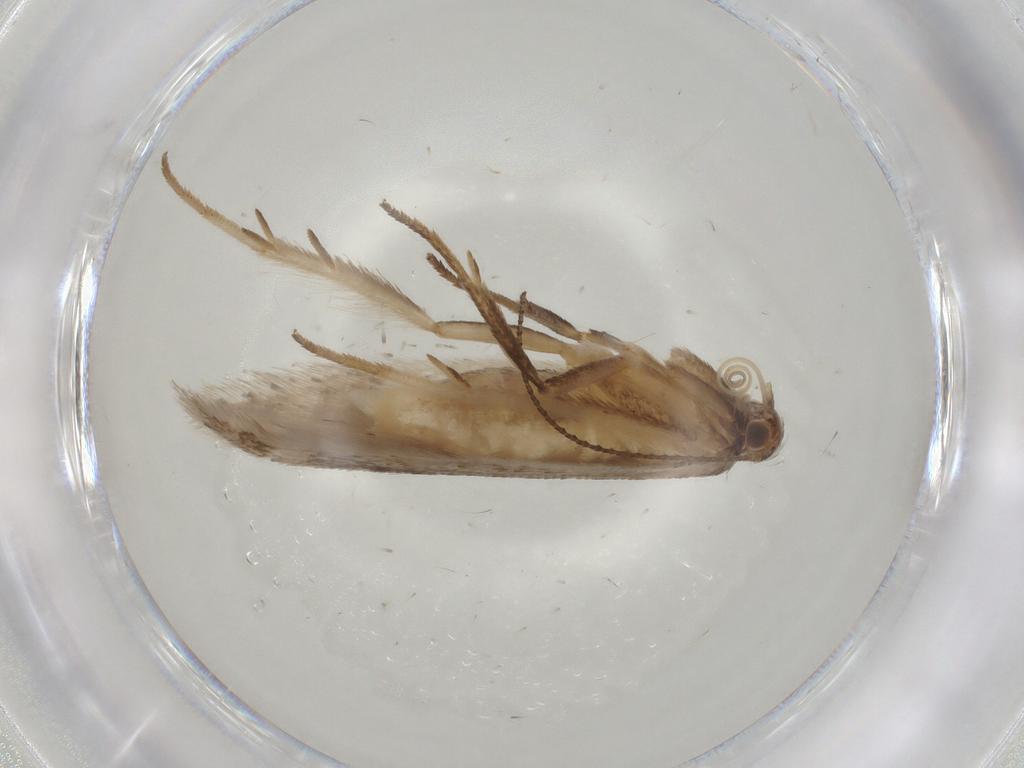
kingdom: Animalia
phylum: Arthropoda
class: Insecta
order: Lepidoptera
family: Gelechiidae
